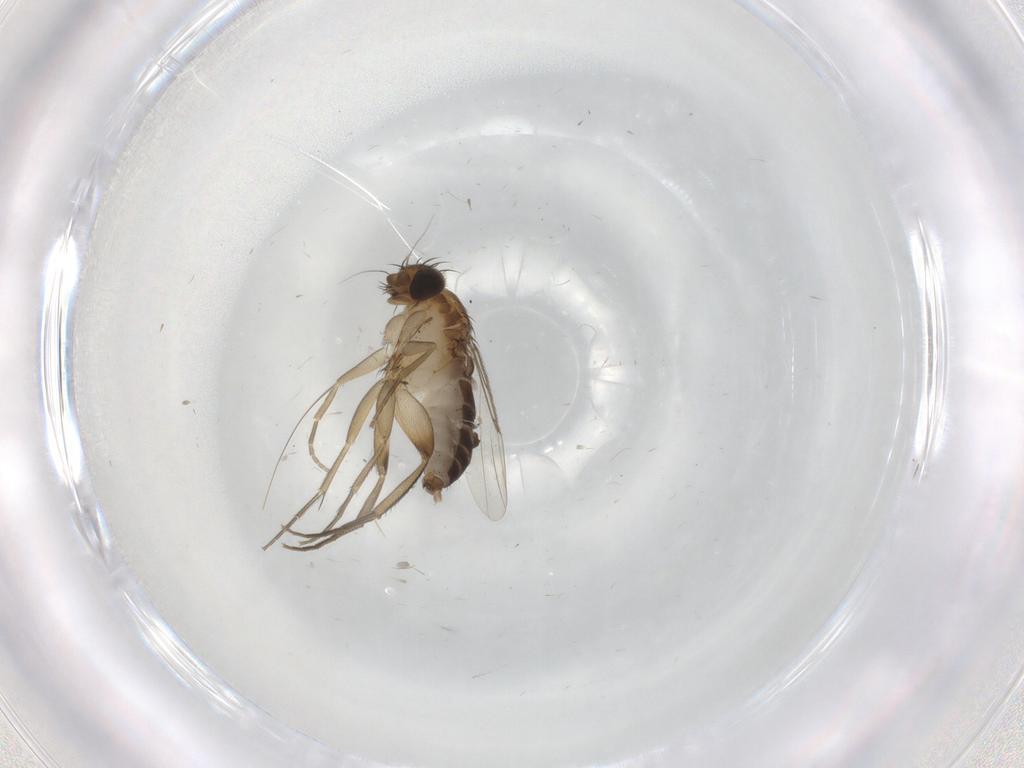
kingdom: Animalia
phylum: Arthropoda
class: Insecta
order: Diptera
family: Phoridae
